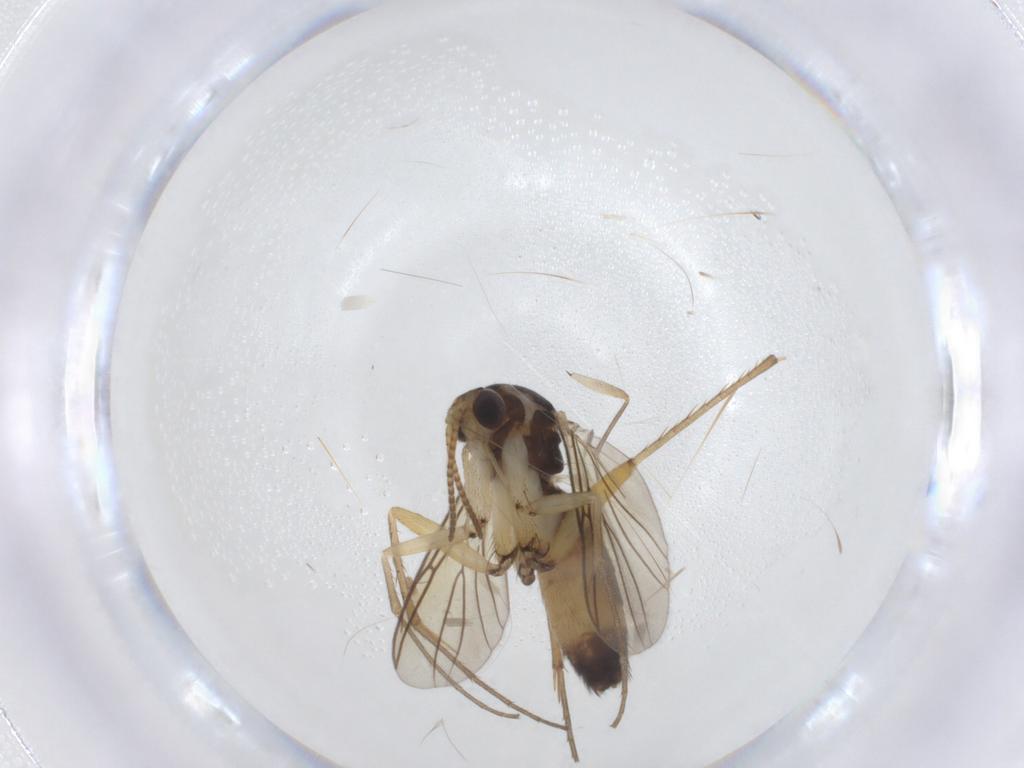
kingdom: Animalia
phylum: Arthropoda
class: Insecta
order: Diptera
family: Mycetophilidae
